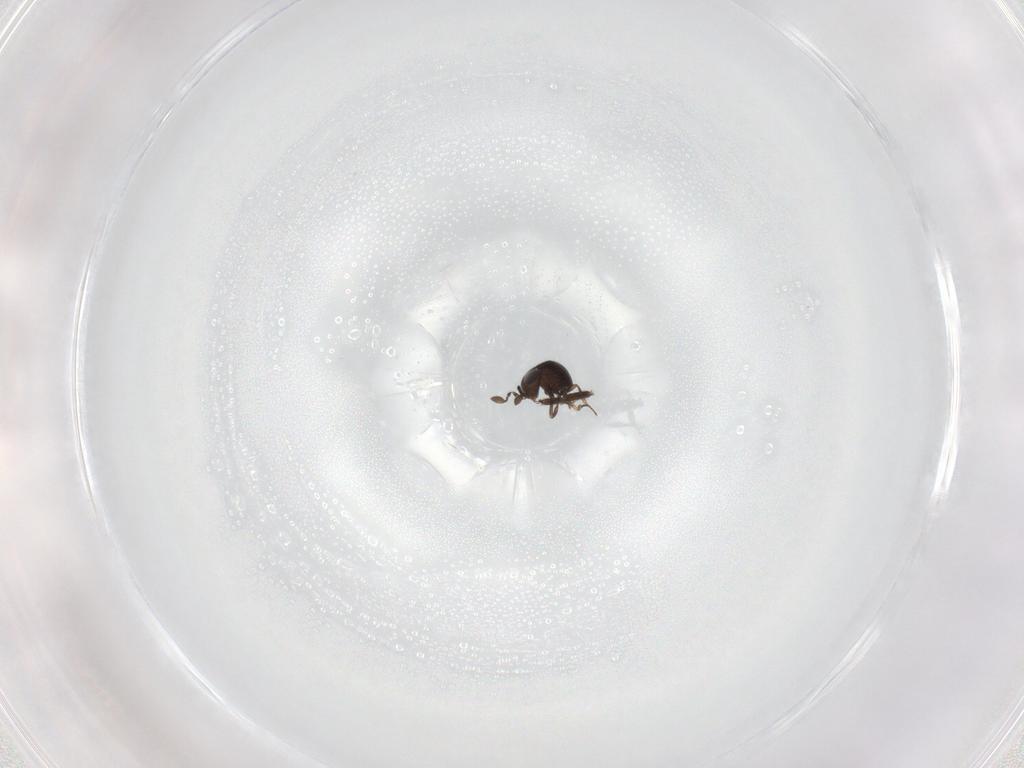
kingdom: Animalia
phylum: Arthropoda
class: Insecta
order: Hymenoptera
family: Scelionidae
